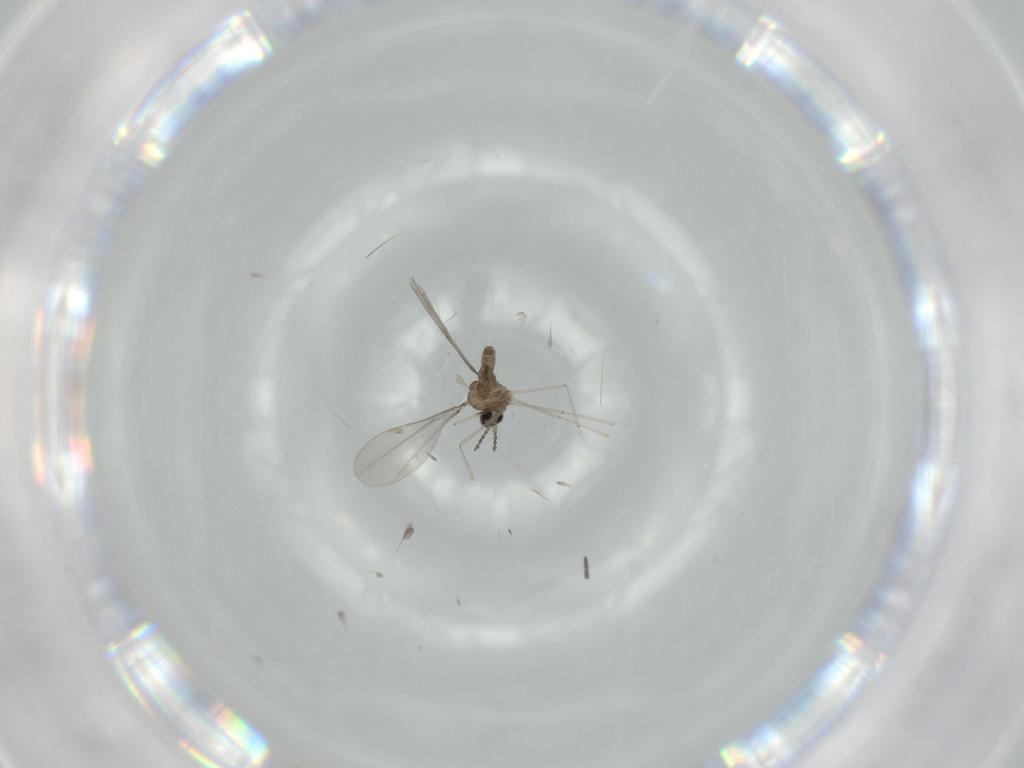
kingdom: Animalia
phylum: Arthropoda
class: Insecta
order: Diptera
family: Cecidomyiidae
